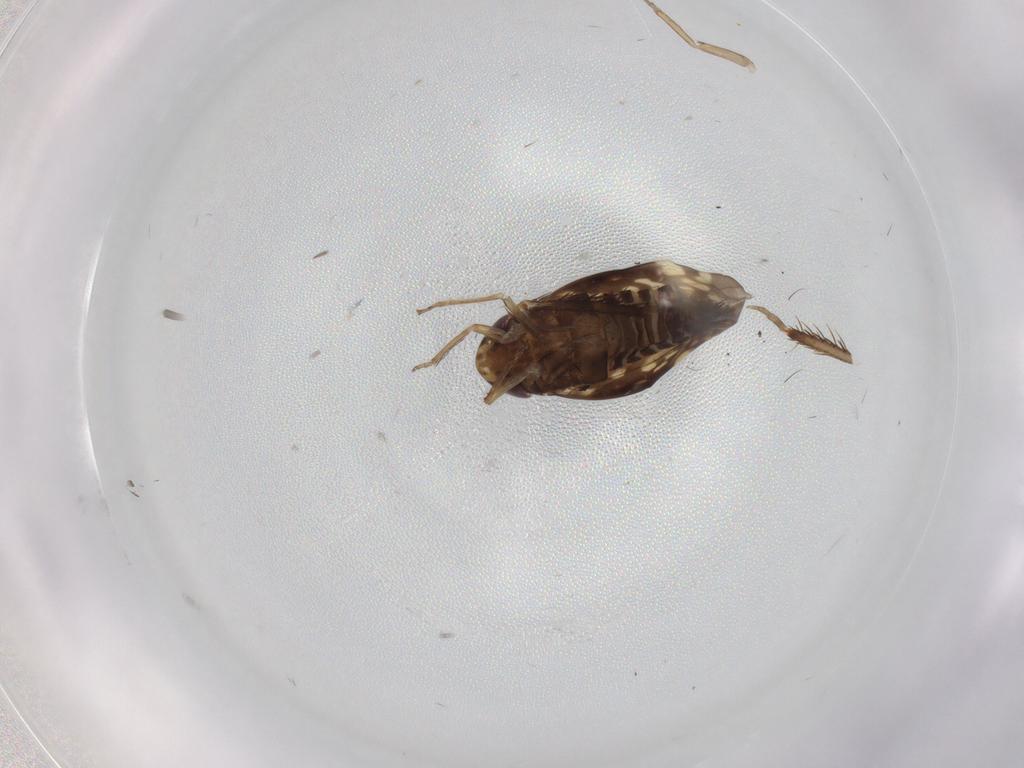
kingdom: Animalia
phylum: Arthropoda
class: Insecta
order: Hemiptera
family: Cicadellidae
